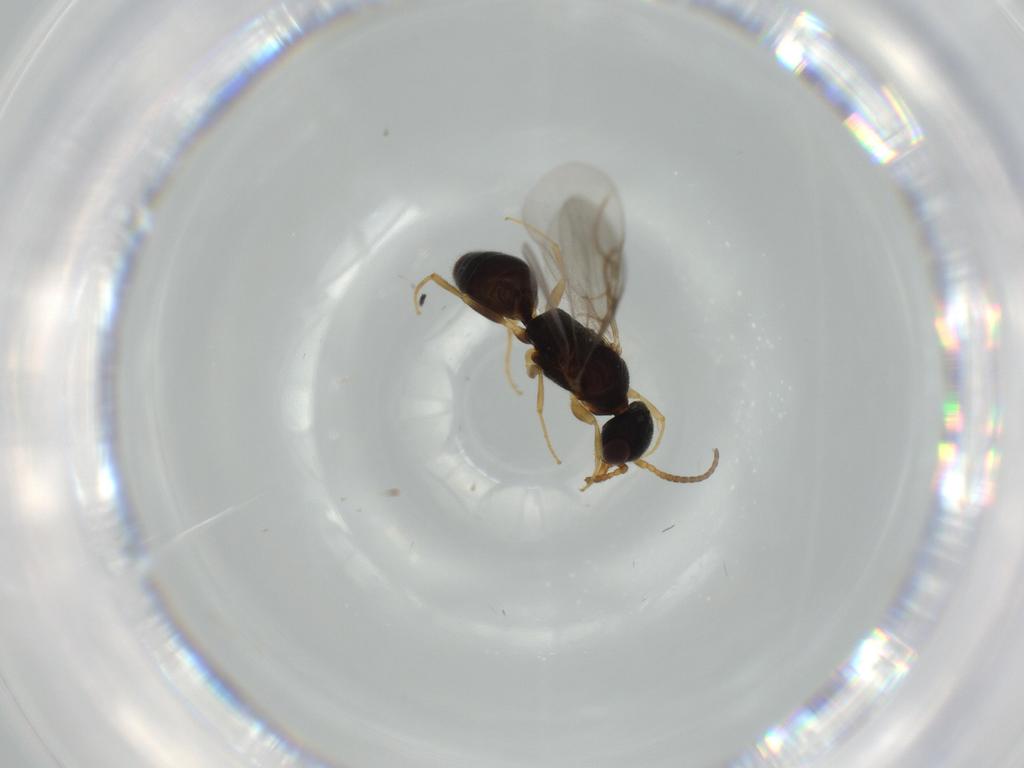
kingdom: Animalia
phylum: Arthropoda
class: Insecta
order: Hymenoptera
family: Bethylidae
